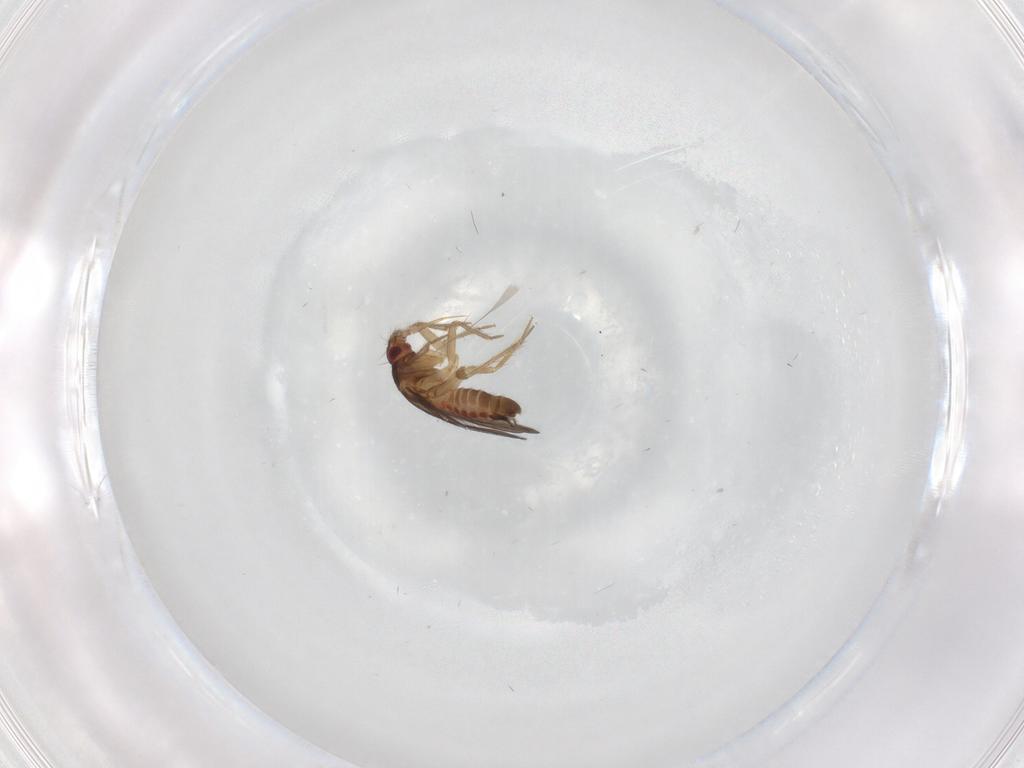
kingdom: Animalia
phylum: Arthropoda
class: Insecta
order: Hemiptera
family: Ceratocombidae
